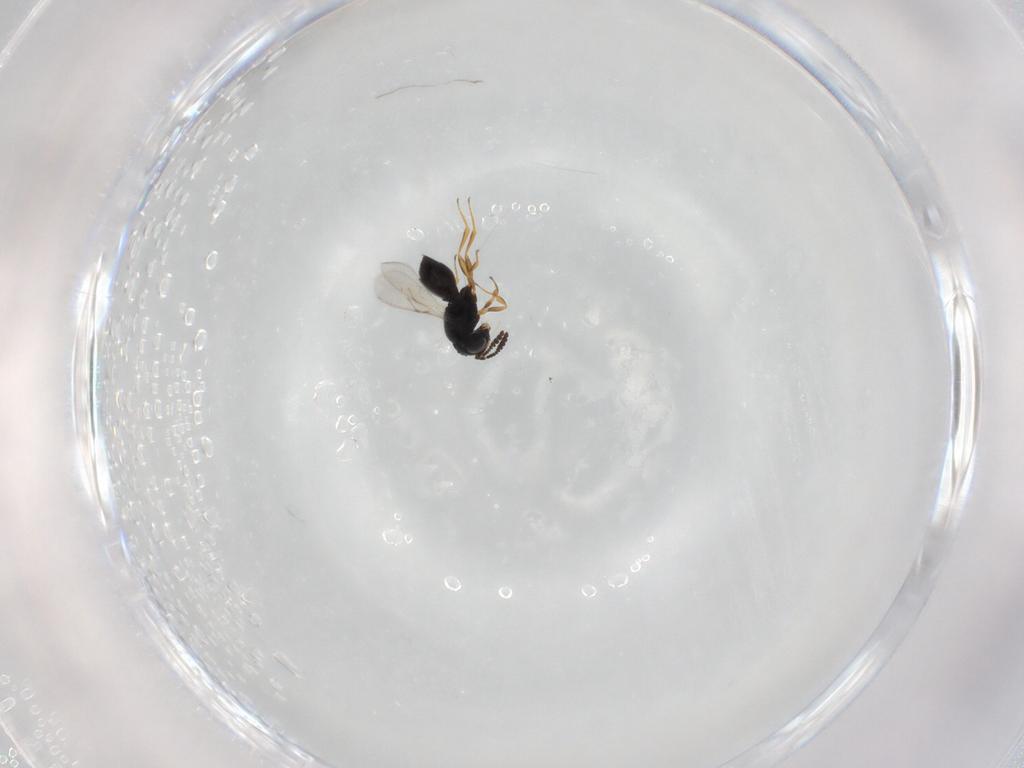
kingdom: Animalia
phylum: Arthropoda
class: Insecta
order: Hymenoptera
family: Scelionidae
